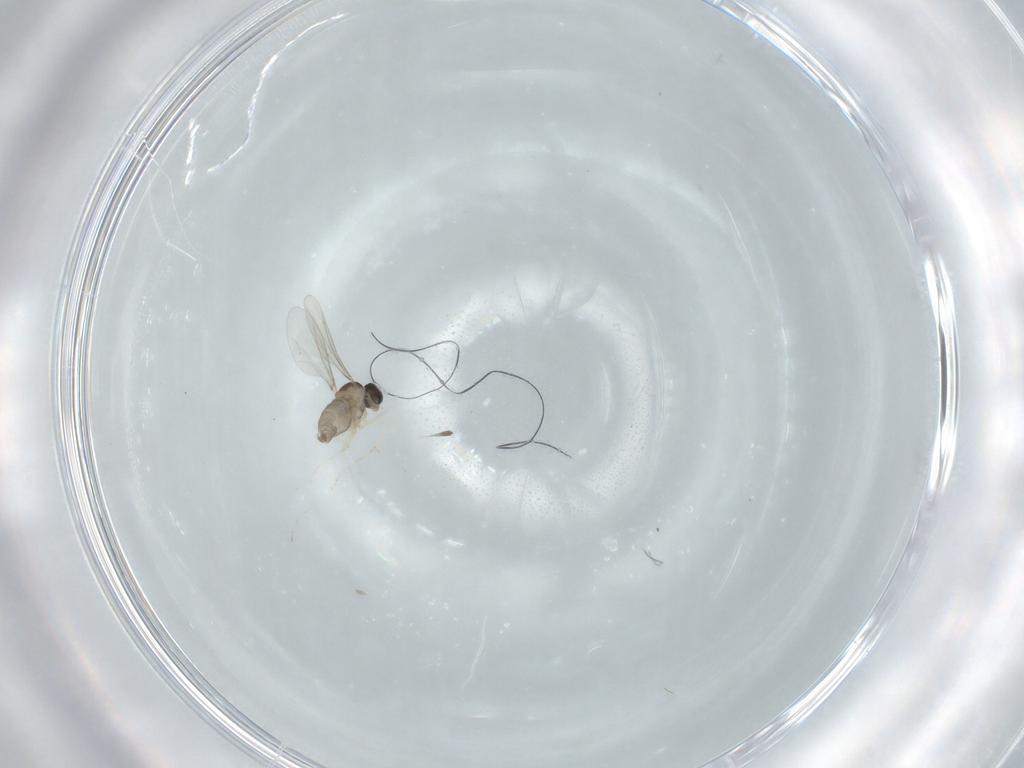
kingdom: Animalia
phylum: Arthropoda
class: Insecta
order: Diptera
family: Cecidomyiidae
